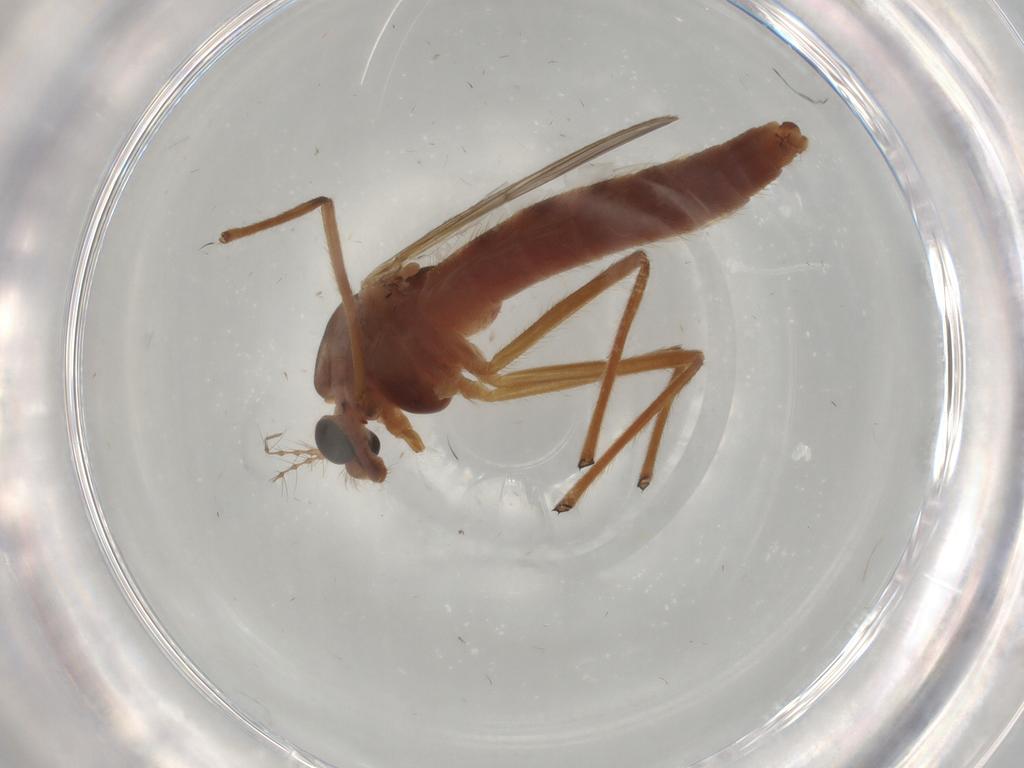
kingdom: Animalia
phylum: Arthropoda
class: Insecta
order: Diptera
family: Chironomidae
